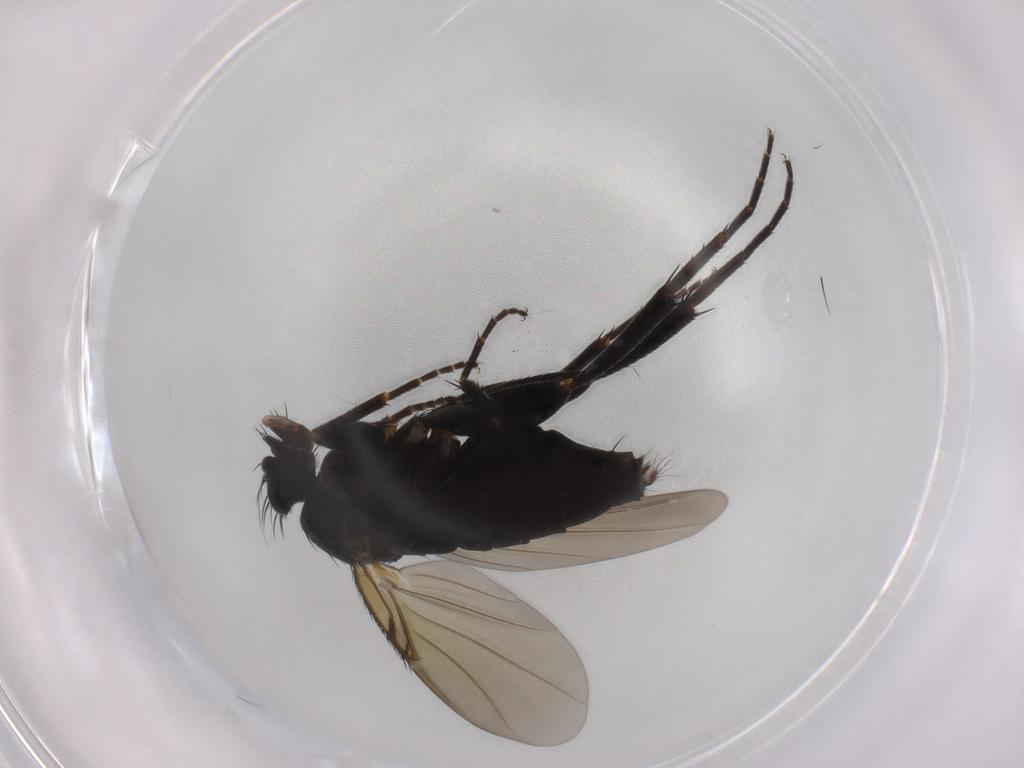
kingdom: Animalia
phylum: Arthropoda
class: Insecta
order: Diptera
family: Phoridae
